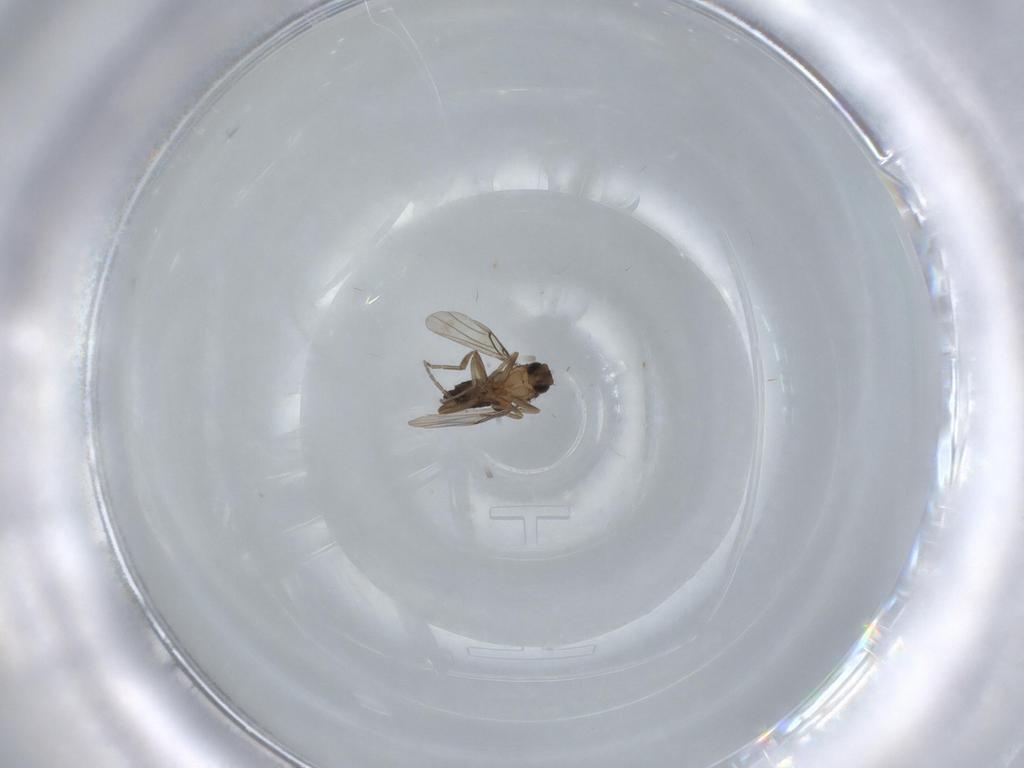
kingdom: Animalia
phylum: Arthropoda
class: Insecta
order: Diptera
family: Phoridae
